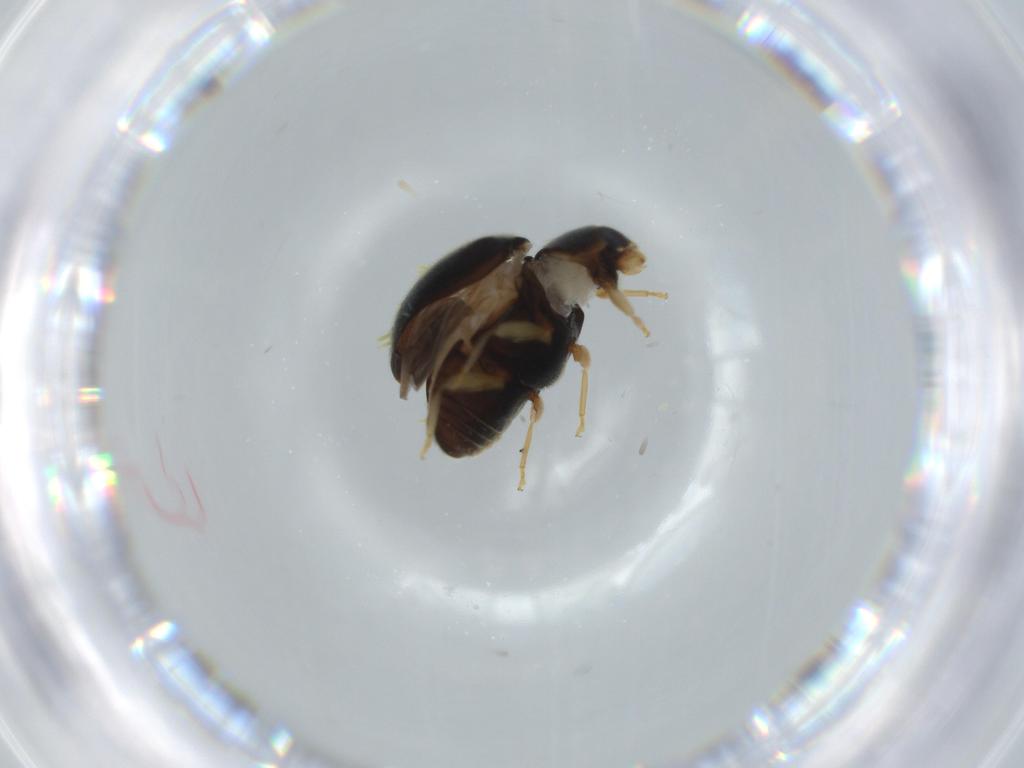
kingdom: Animalia
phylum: Arthropoda
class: Insecta
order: Coleoptera
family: Coccinellidae
